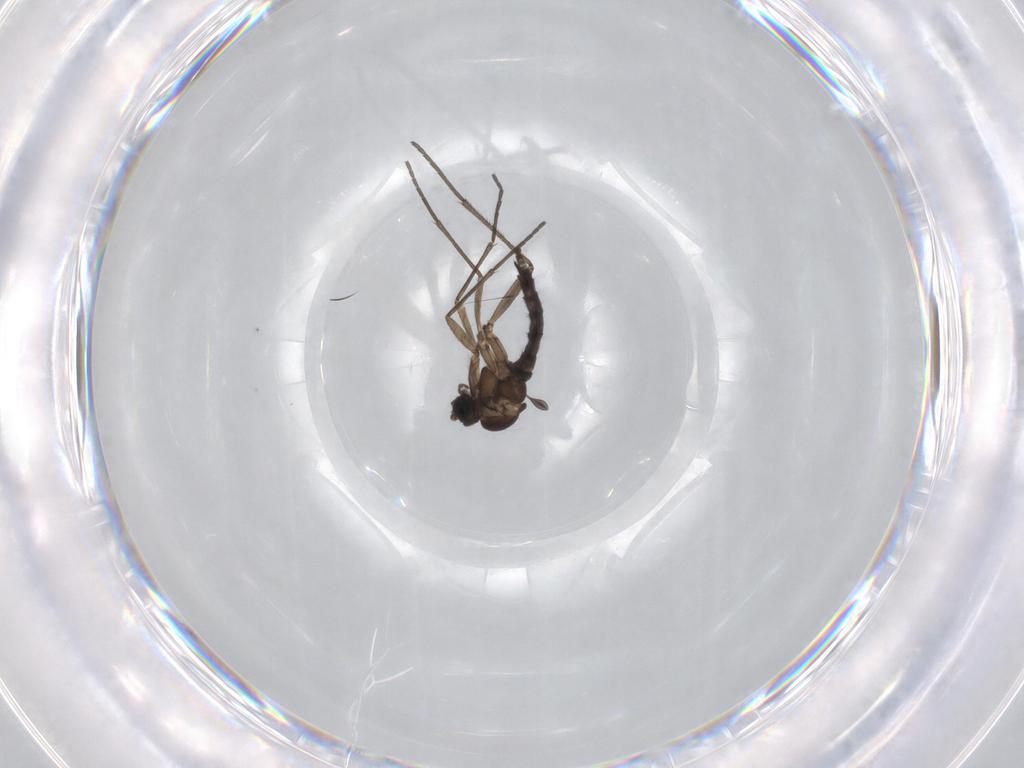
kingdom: Animalia
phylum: Arthropoda
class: Insecta
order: Diptera
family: Sciaridae
